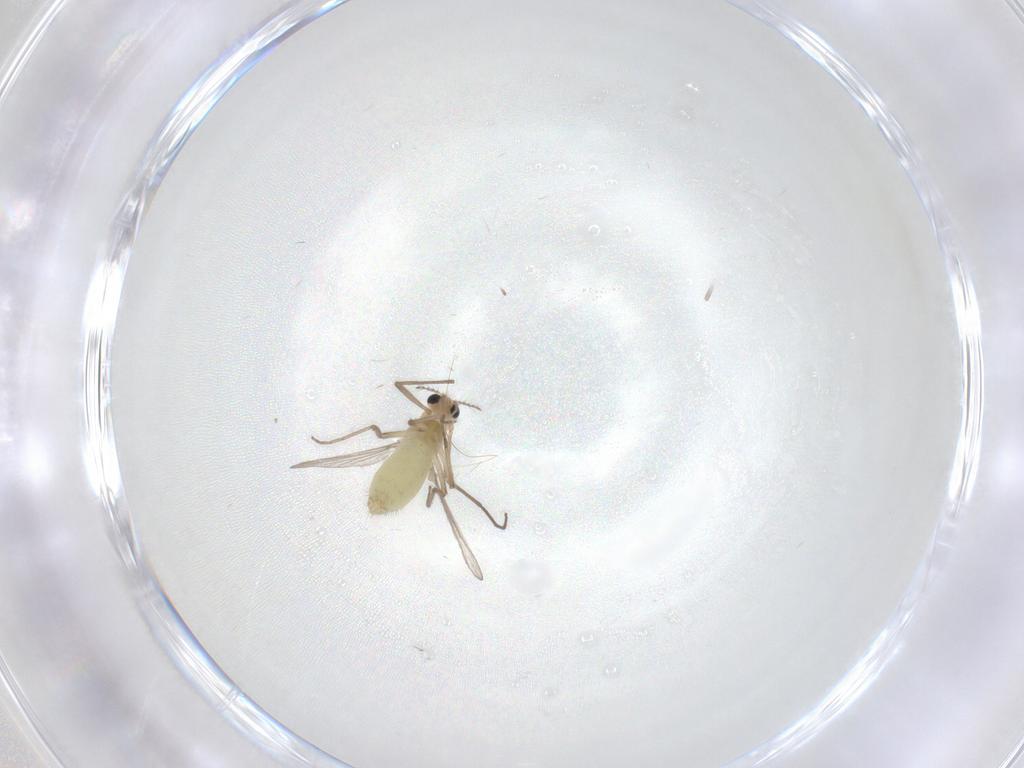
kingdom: Animalia
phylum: Arthropoda
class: Insecta
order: Diptera
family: Chironomidae
